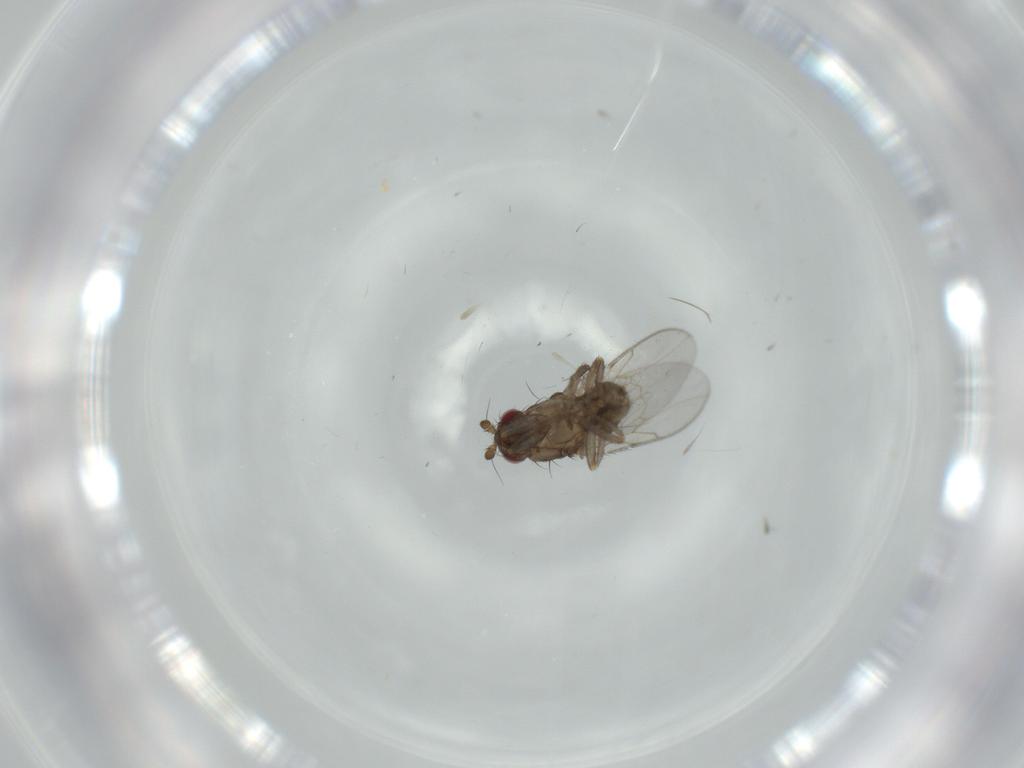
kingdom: Animalia
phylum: Arthropoda
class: Insecta
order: Diptera
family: Sphaeroceridae
